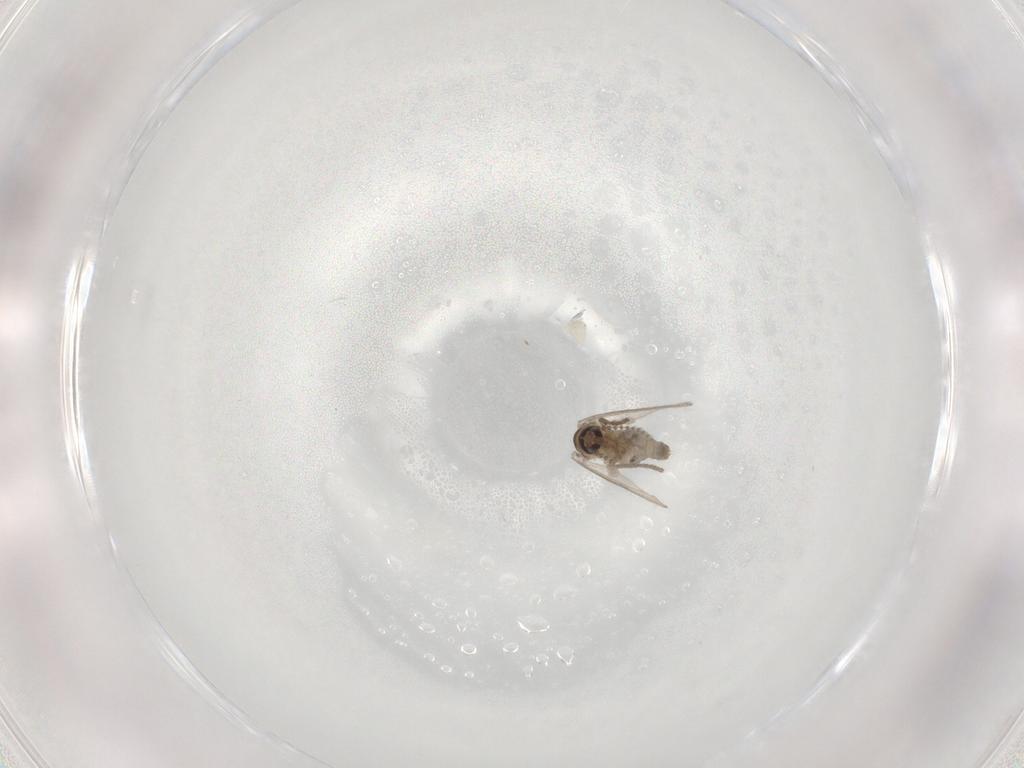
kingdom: Animalia
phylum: Arthropoda
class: Insecta
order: Diptera
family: Psychodidae
